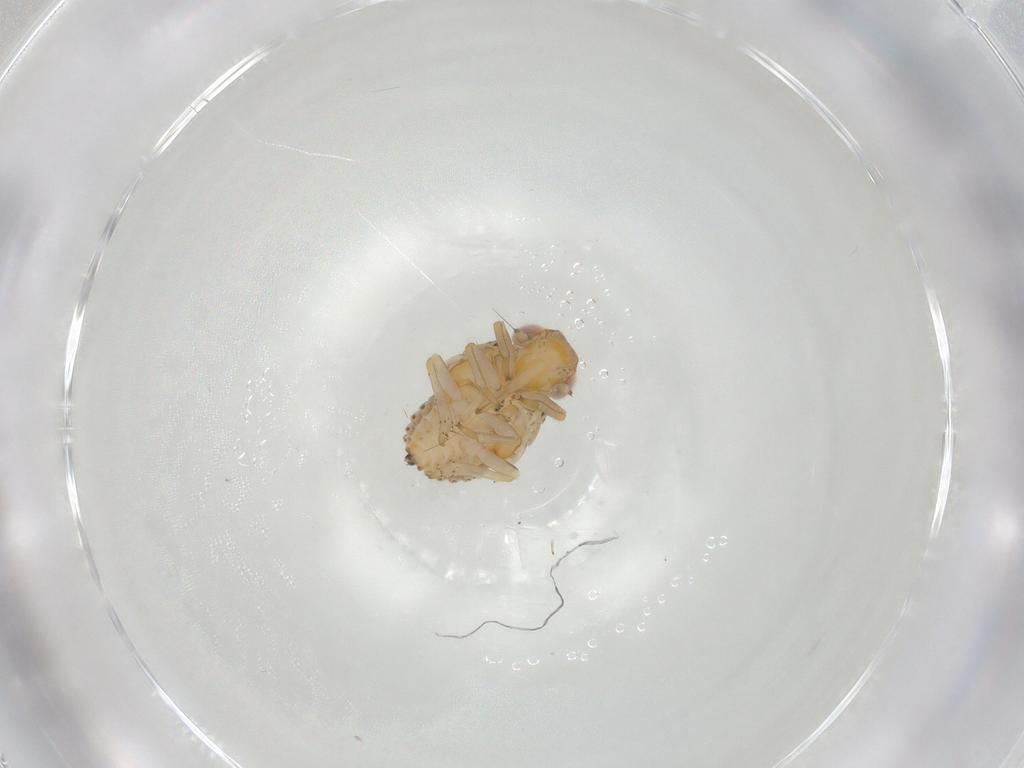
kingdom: Animalia
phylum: Arthropoda
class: Insecta
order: Hemiptera
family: Issidae
